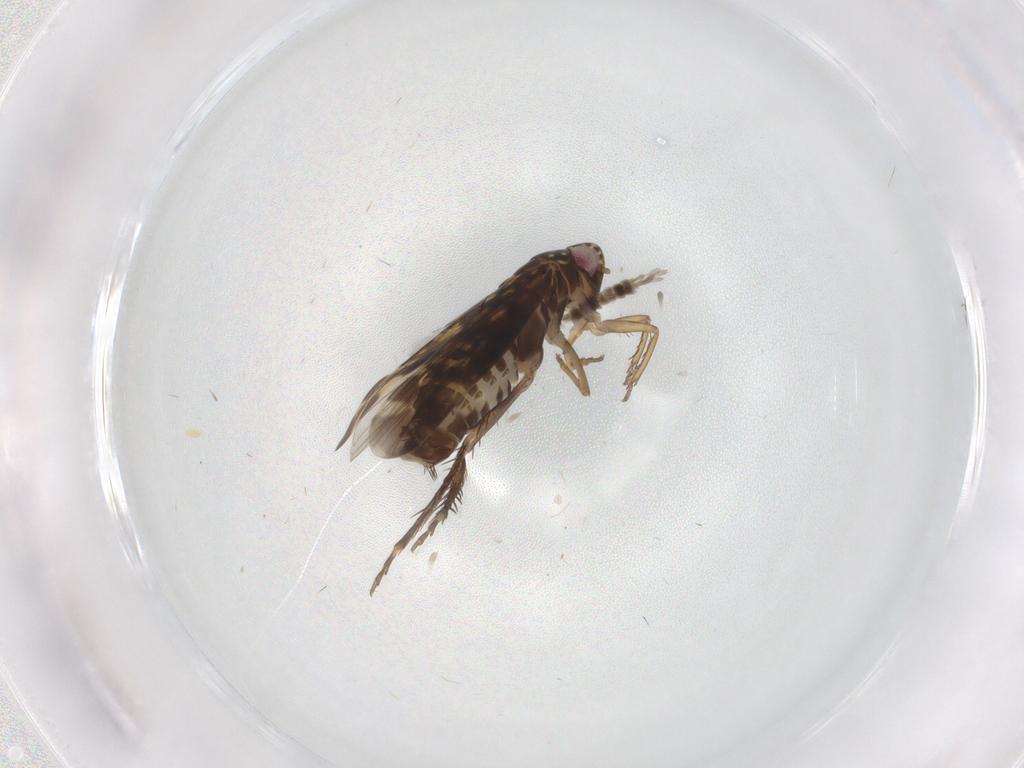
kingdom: Animalia
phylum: Arthropoda
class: Insecta
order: Hemiptera
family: Cicadellidae
